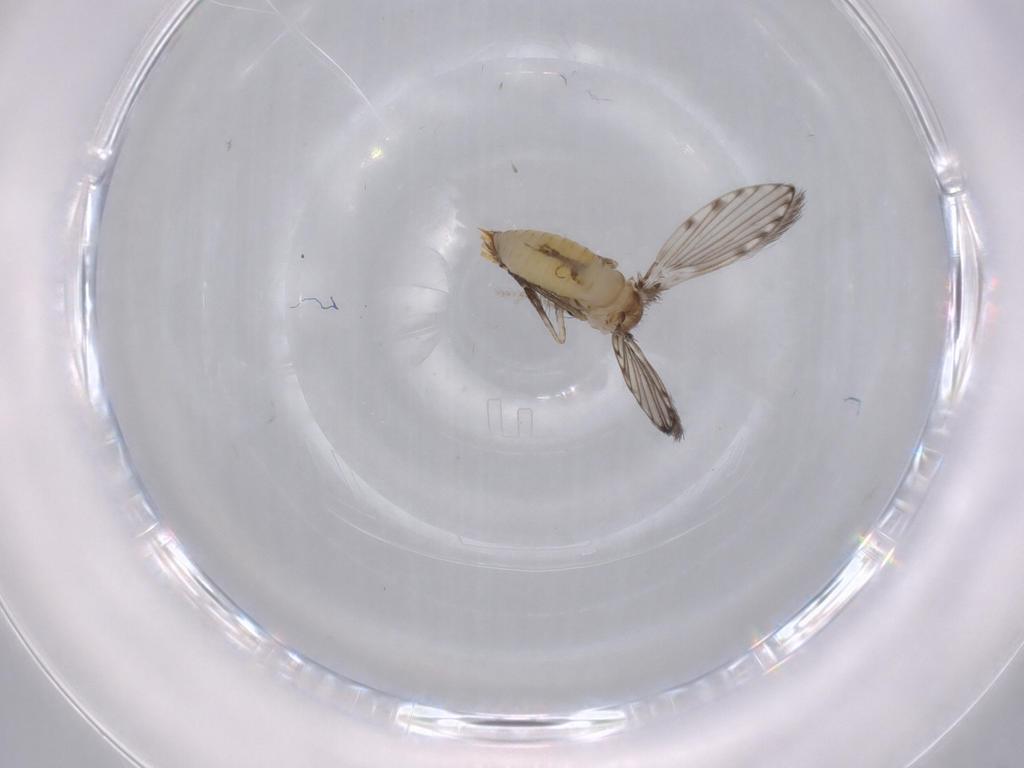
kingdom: Animalia
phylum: Arthropoda
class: Insecta
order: Diptera
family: Psychodidae
